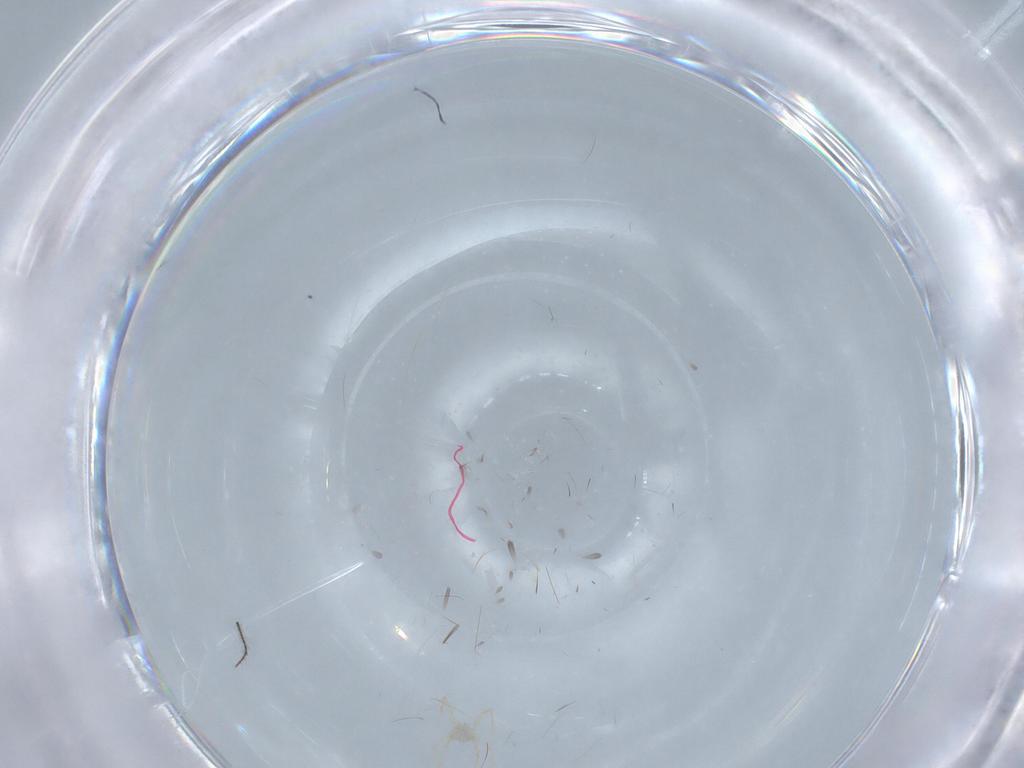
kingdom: Animalia
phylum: Arthropoda
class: Arachnida
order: Trombidiformes
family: Erythraeidae
